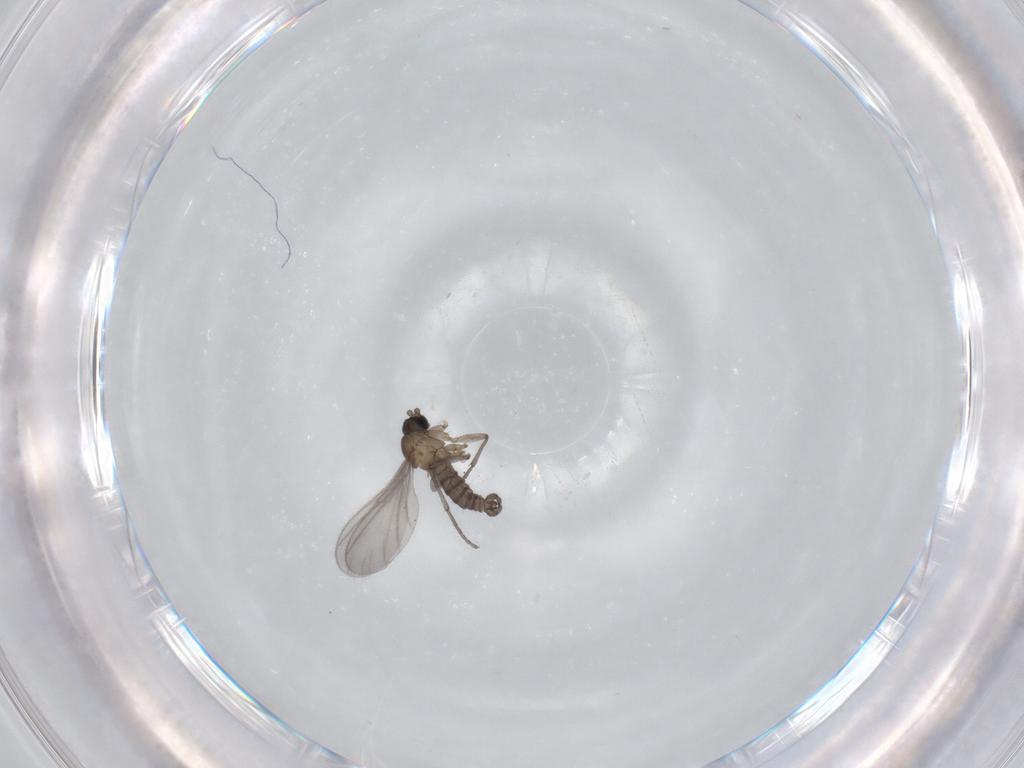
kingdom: Animalia
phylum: Arthropoda
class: Insecta
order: Diptera
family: Sciaridae
